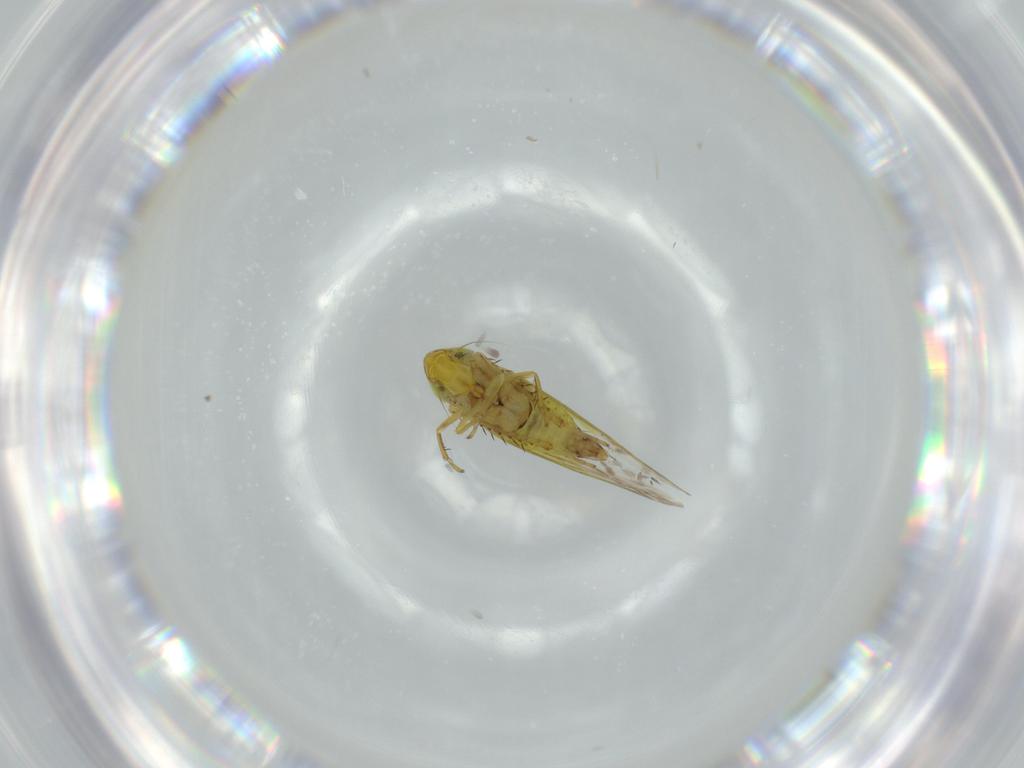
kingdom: Animalia
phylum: Arthropoda
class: Insecta
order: Hemiptera
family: Cicadellidae
